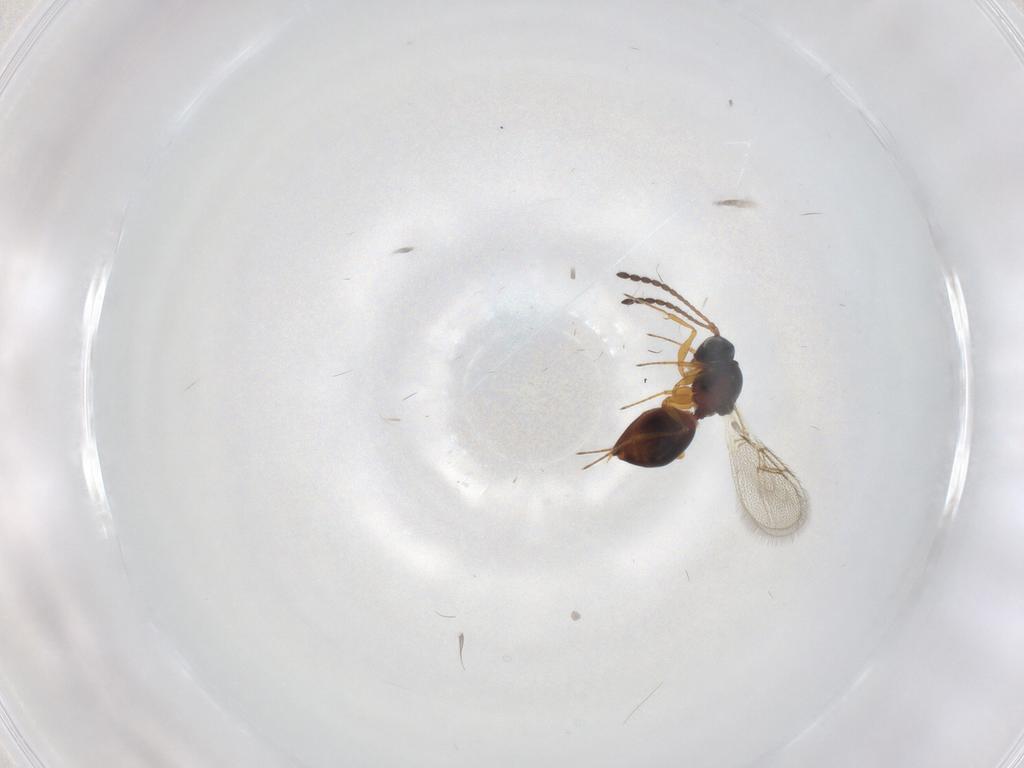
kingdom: Animalia
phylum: Arthropoda
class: Insecta
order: Hymenoptera
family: Figitidae
